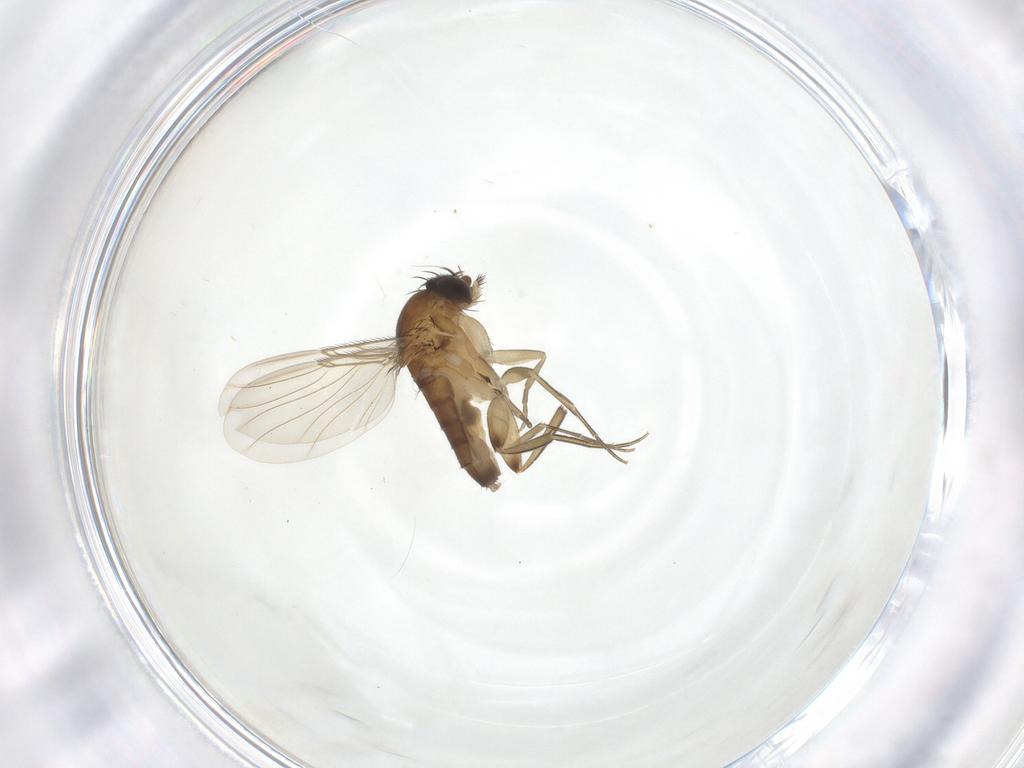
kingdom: Animalia
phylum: Arthropoda
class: Insecta
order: Diptera
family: Phoridae
